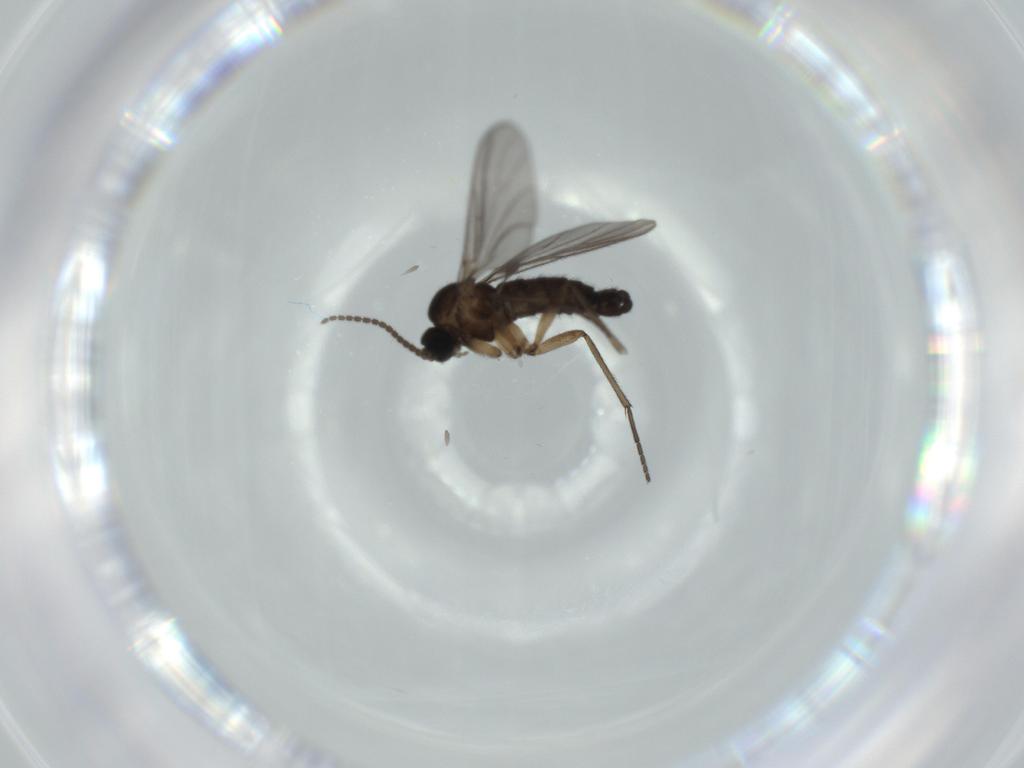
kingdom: Animalia
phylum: Arthropoda
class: Insecta
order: Diptera
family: Sciaridae
